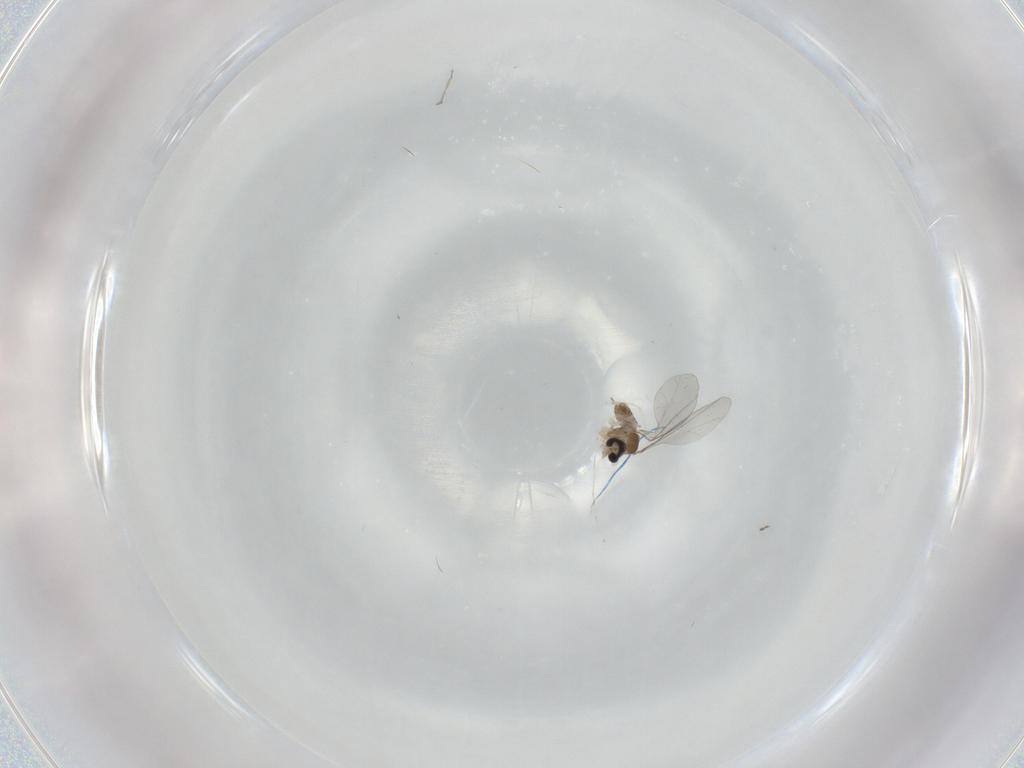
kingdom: Animalia
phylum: Arthropoda
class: Insecta
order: Diptera
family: Cecidomyiidae
